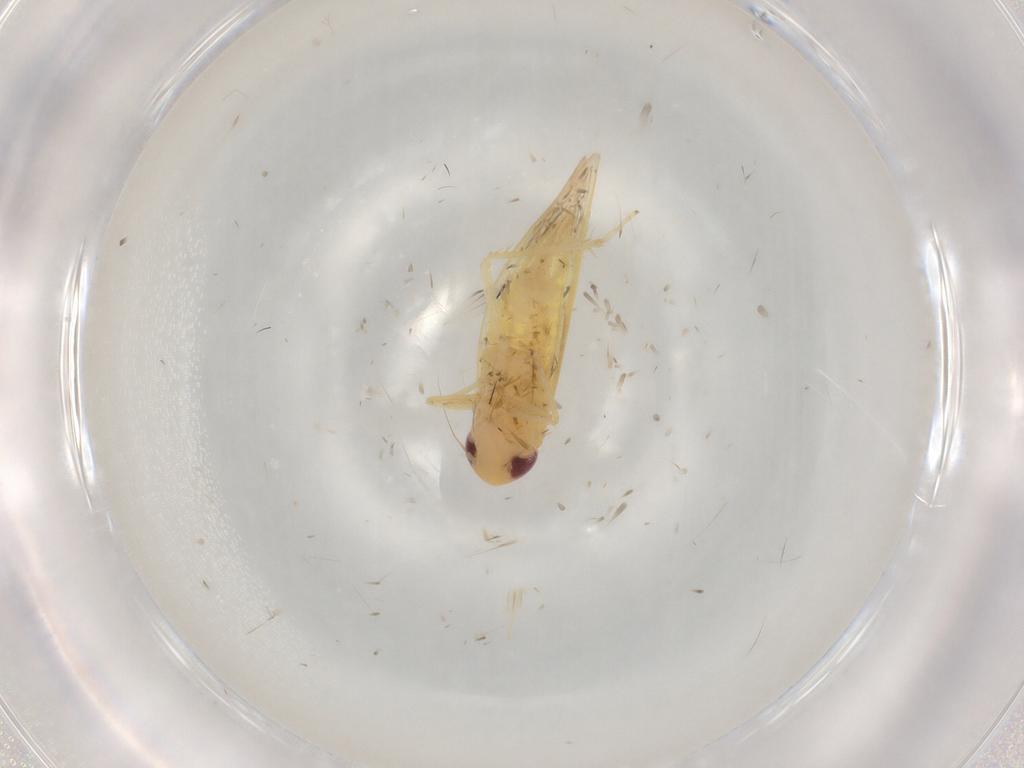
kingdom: Animalia
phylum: Arthropoda
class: Insecta
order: Hemiptera
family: Cicadellidae
